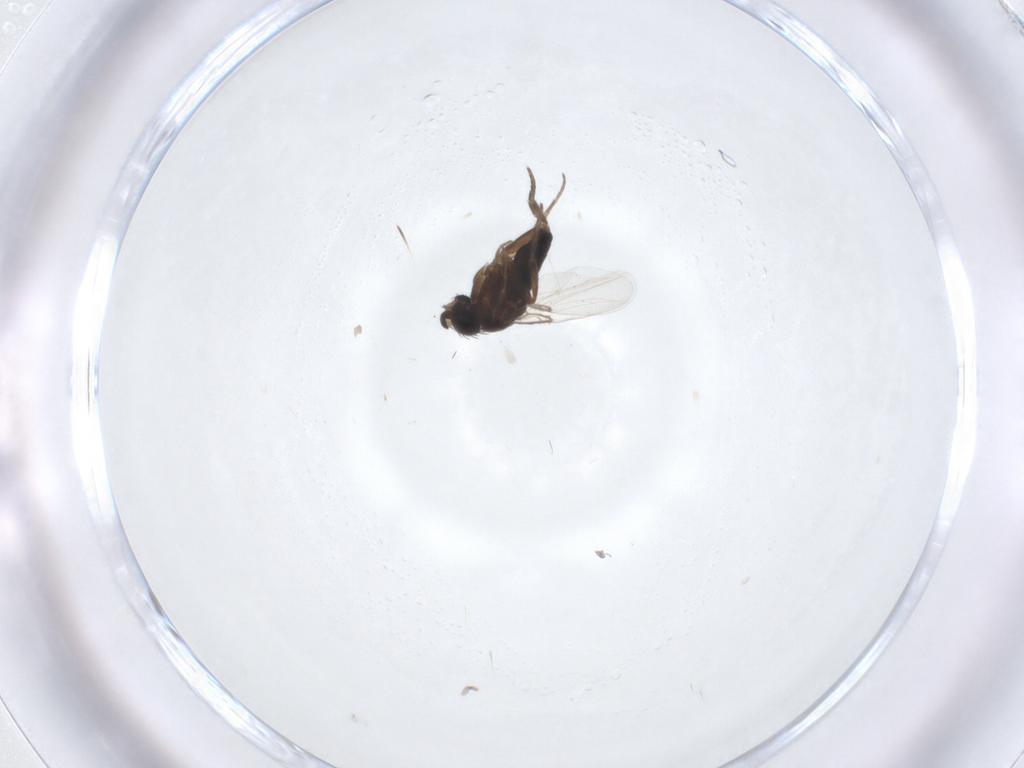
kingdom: Animalia
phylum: Arthropoda
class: Insecta
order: Diptera
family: Phoridae
